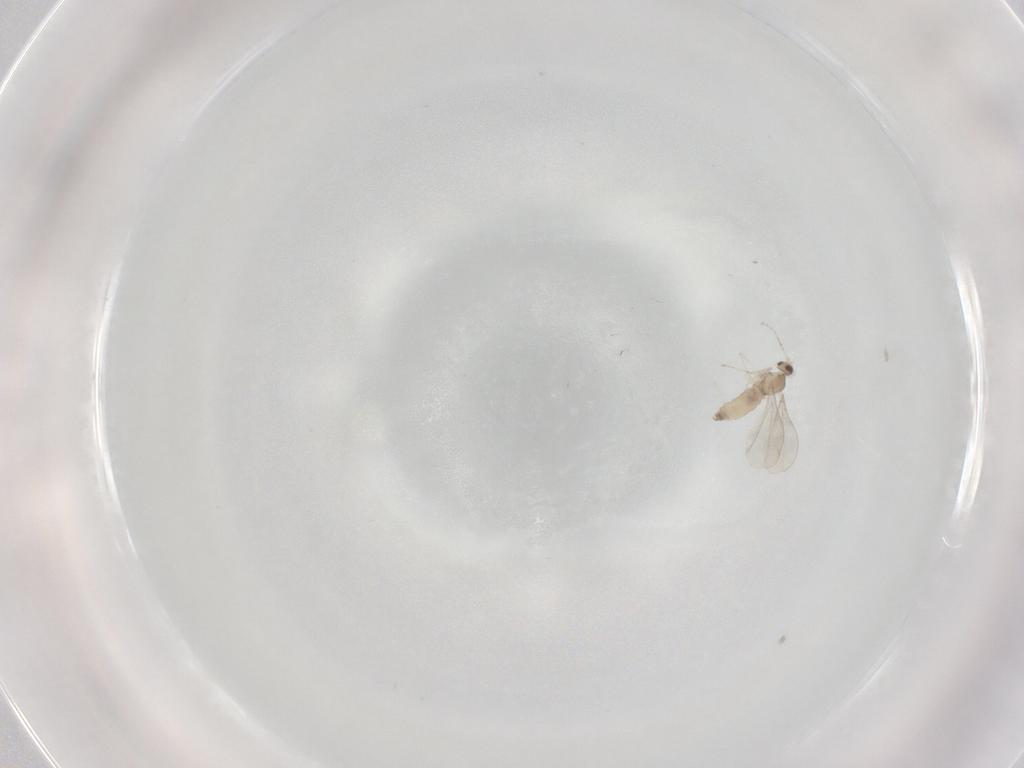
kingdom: Animalia
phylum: Arthropoda
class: Insecta
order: Diptera
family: Cecidomyiidae
